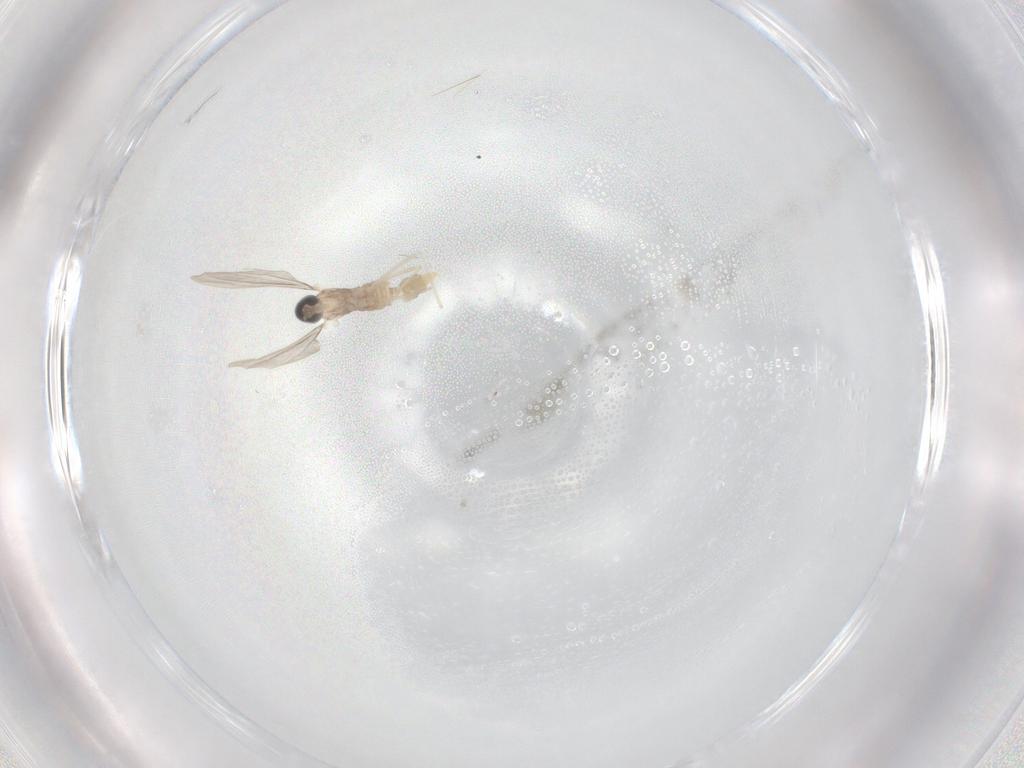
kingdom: Animalia
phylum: Arthropoda
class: Insecta
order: Diptera
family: Cecidomyiidae
